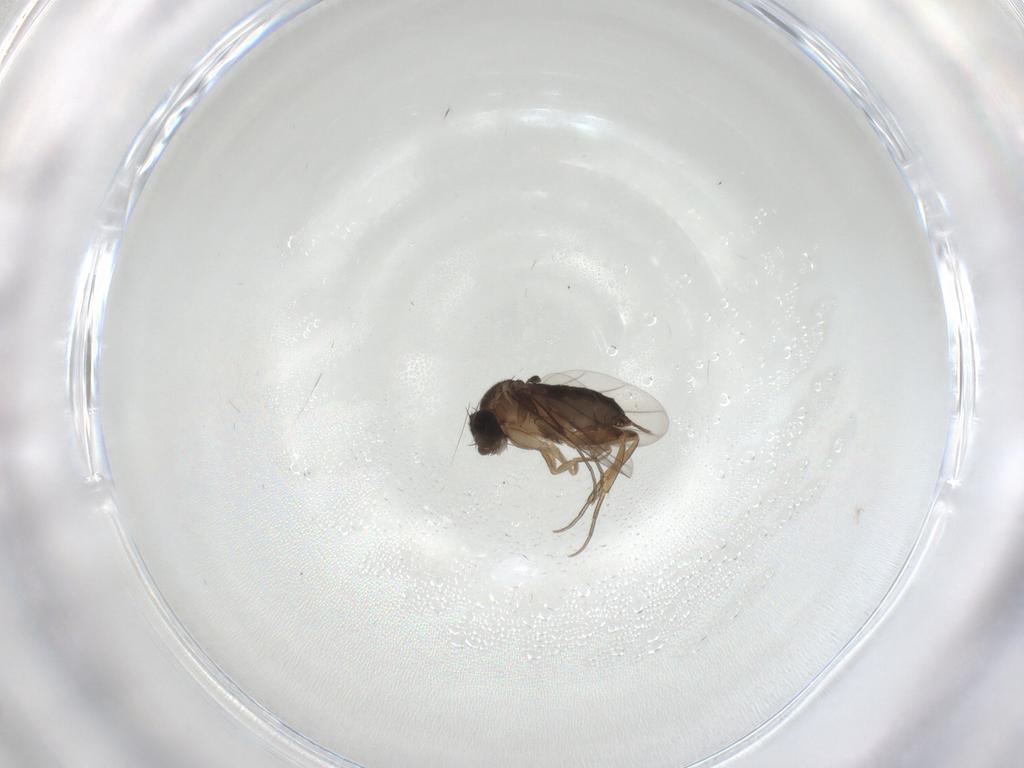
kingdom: Animalia
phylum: Arthropoda
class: Insecta
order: Diptera
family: Phoridae
